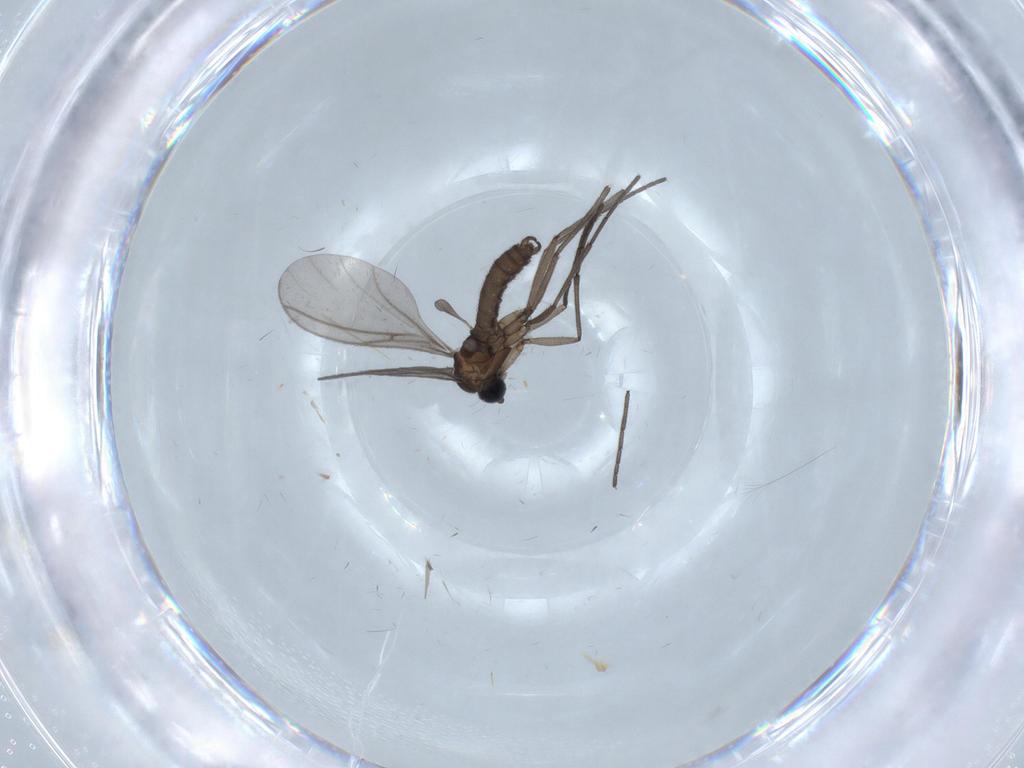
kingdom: Animalia
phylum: Arthropoda
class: Insecta
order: Diptera
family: Sciaridae
